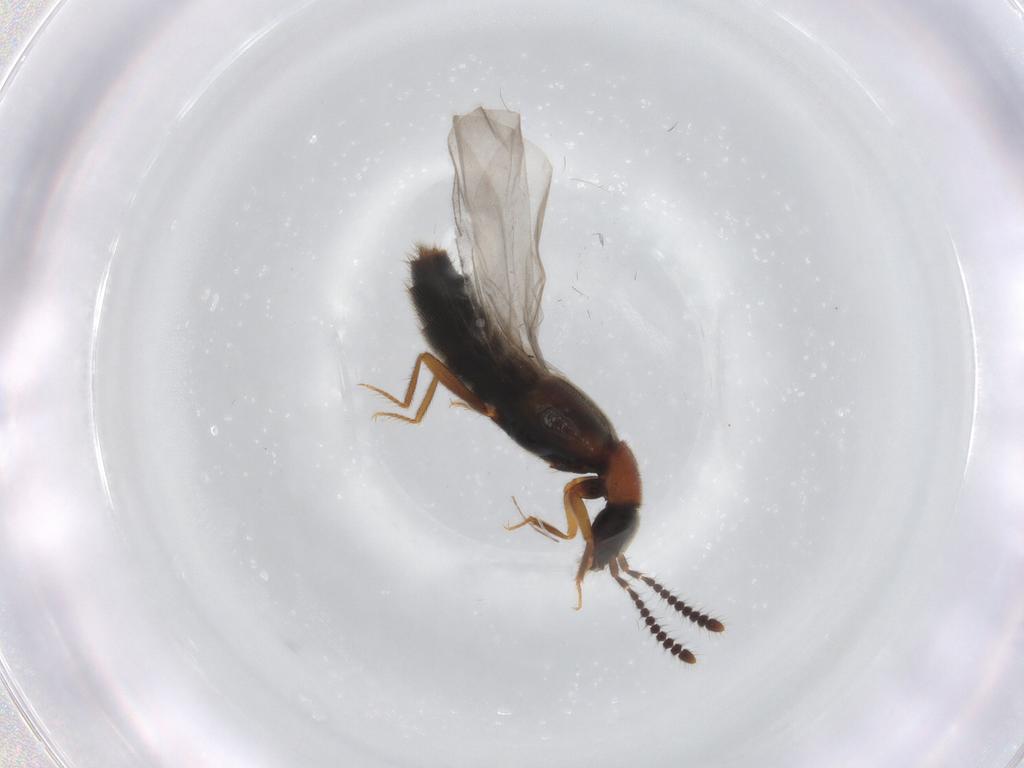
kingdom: Animalia
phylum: Arthropoda
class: Insecta
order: Coleoptera
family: Staphylinidae
